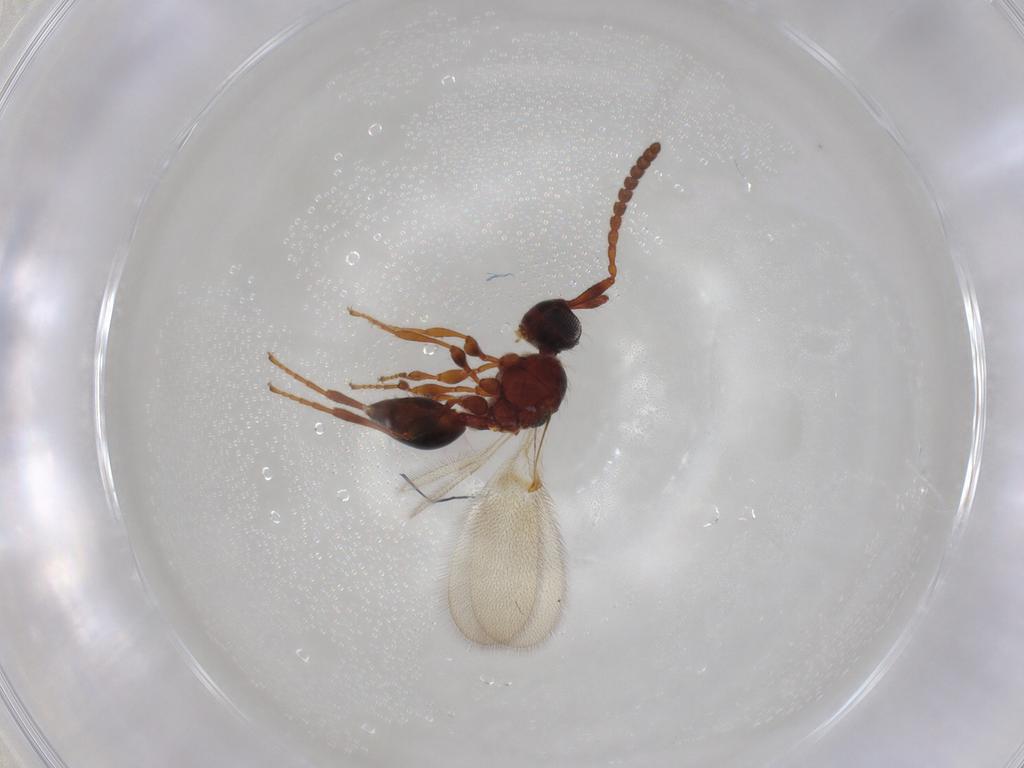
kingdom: Animalia
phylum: Arthropoda
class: Insecta
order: Hymenoptera
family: Diapriidae
